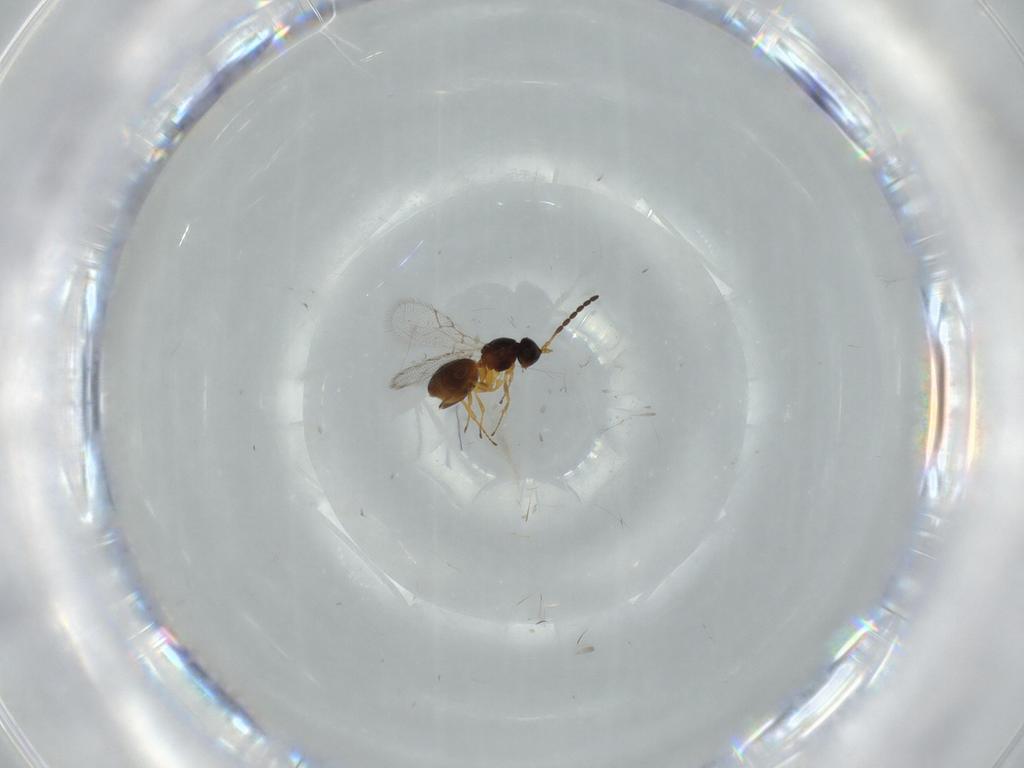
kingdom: Animalia
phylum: Arthropoda
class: Insecta
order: Hymenoptera
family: Figitidae
